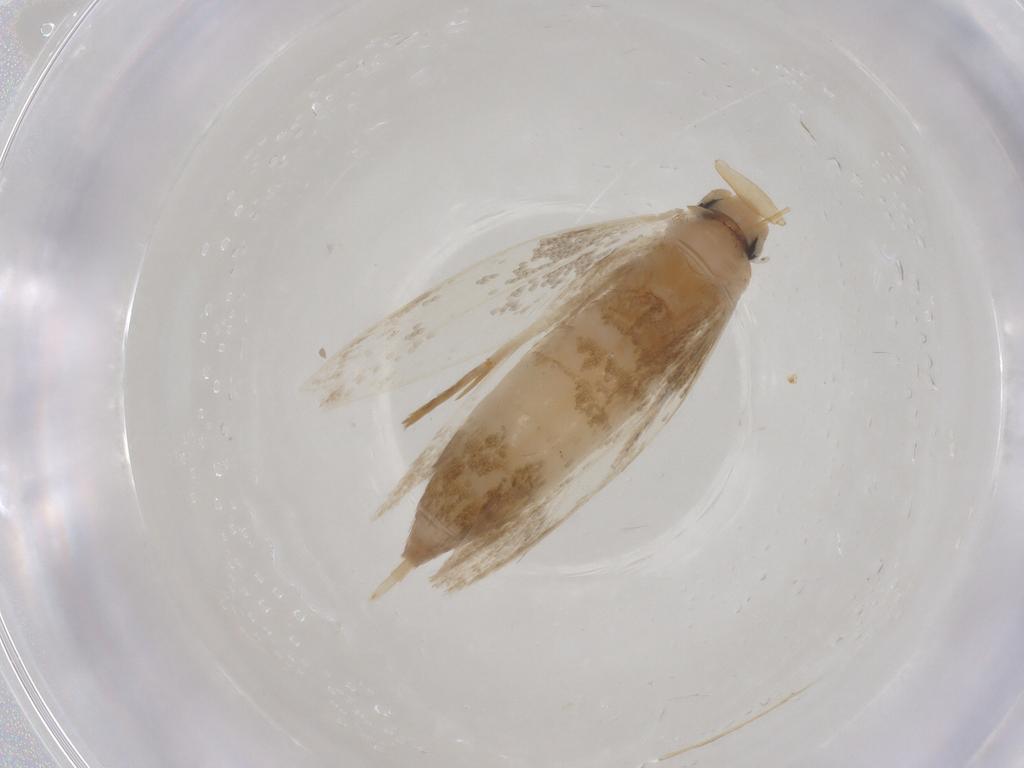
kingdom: Animalia
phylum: Arthropoda
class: Insecta
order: Lepidoptera
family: Tineidae
